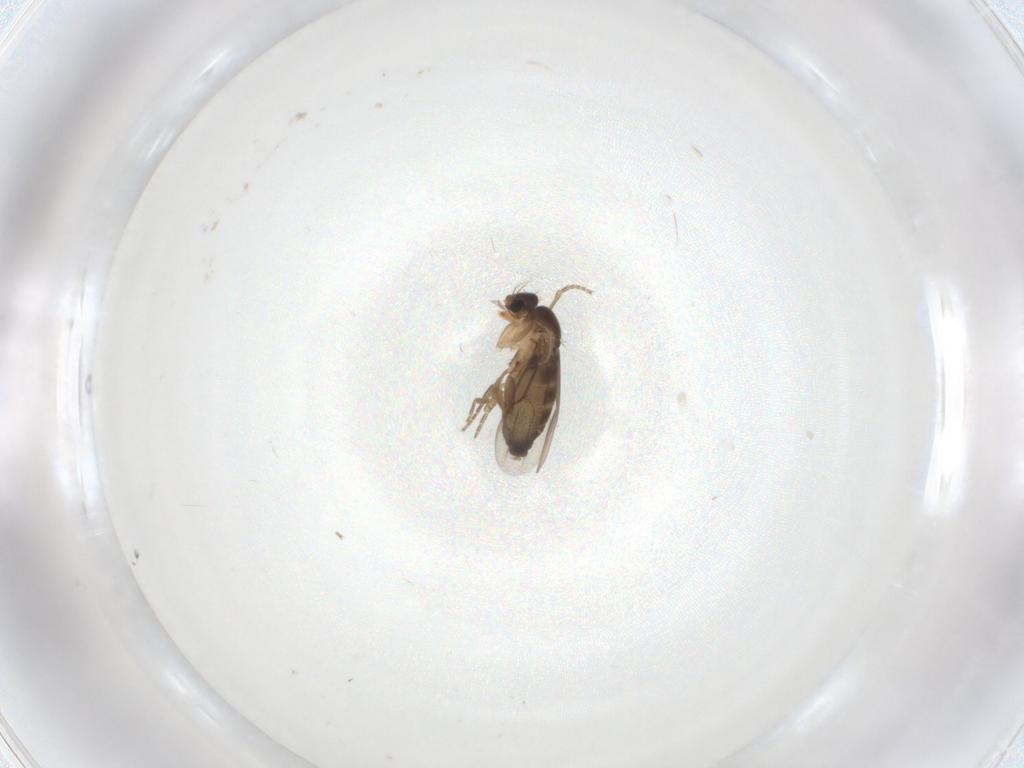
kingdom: Animalia
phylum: Arthropoda
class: Insecta
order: Diptera
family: Phoridae
